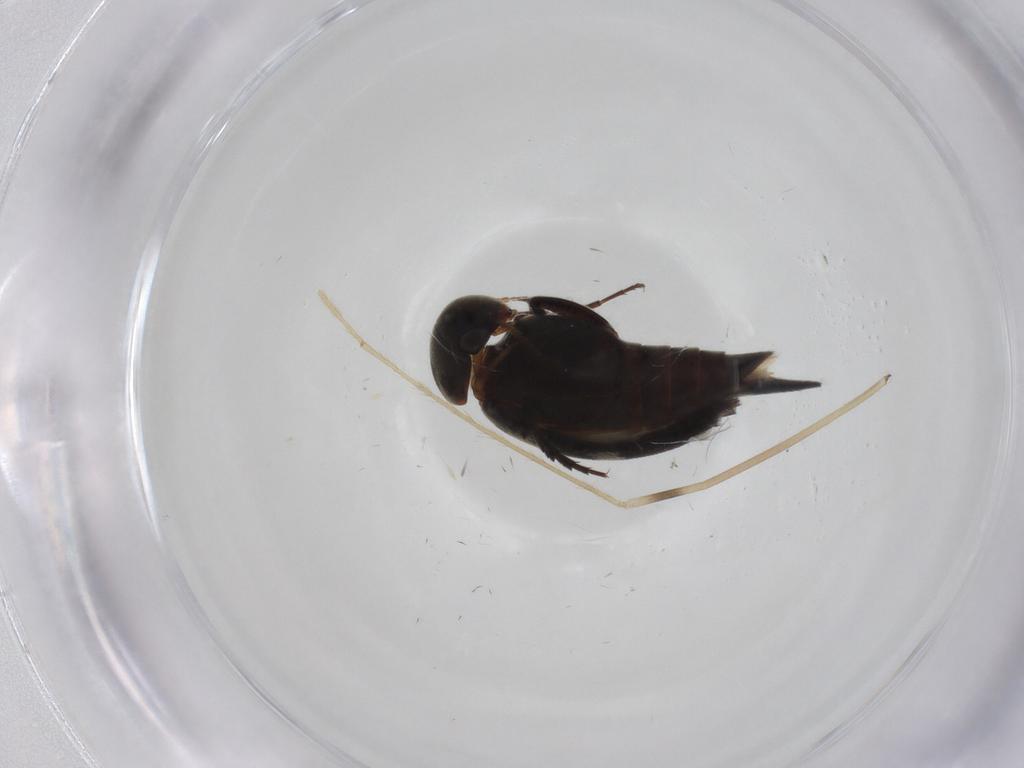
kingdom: Animalia
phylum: Arthropoda
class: Insecta
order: Coleoptera
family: Mordellidae
